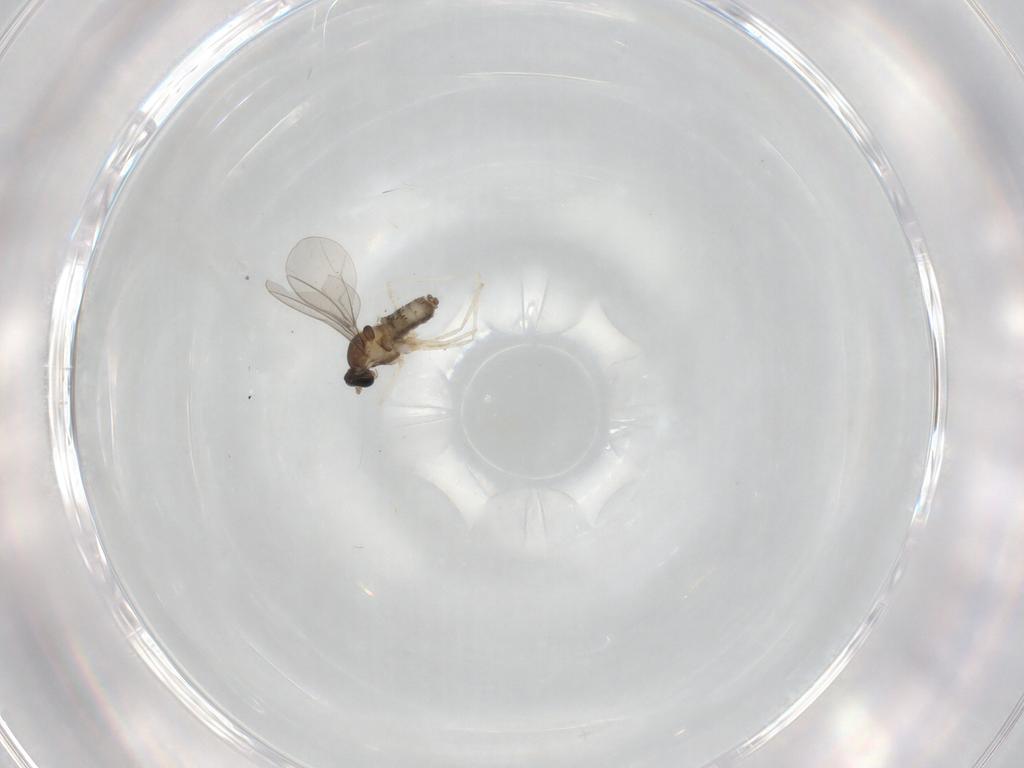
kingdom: Animalia
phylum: Arthropoda
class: Insecta
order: Diptera
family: Cecidomyiidae
